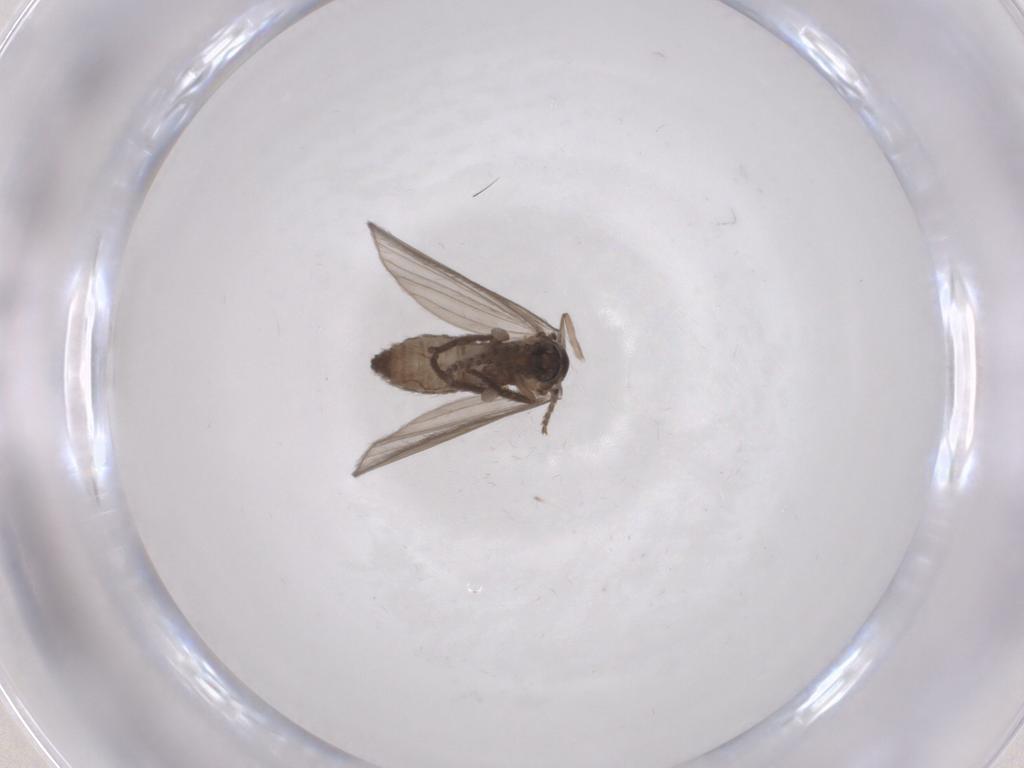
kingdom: Animalia
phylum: Arthropoda
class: Insecta
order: Diptera
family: Psychodidae
